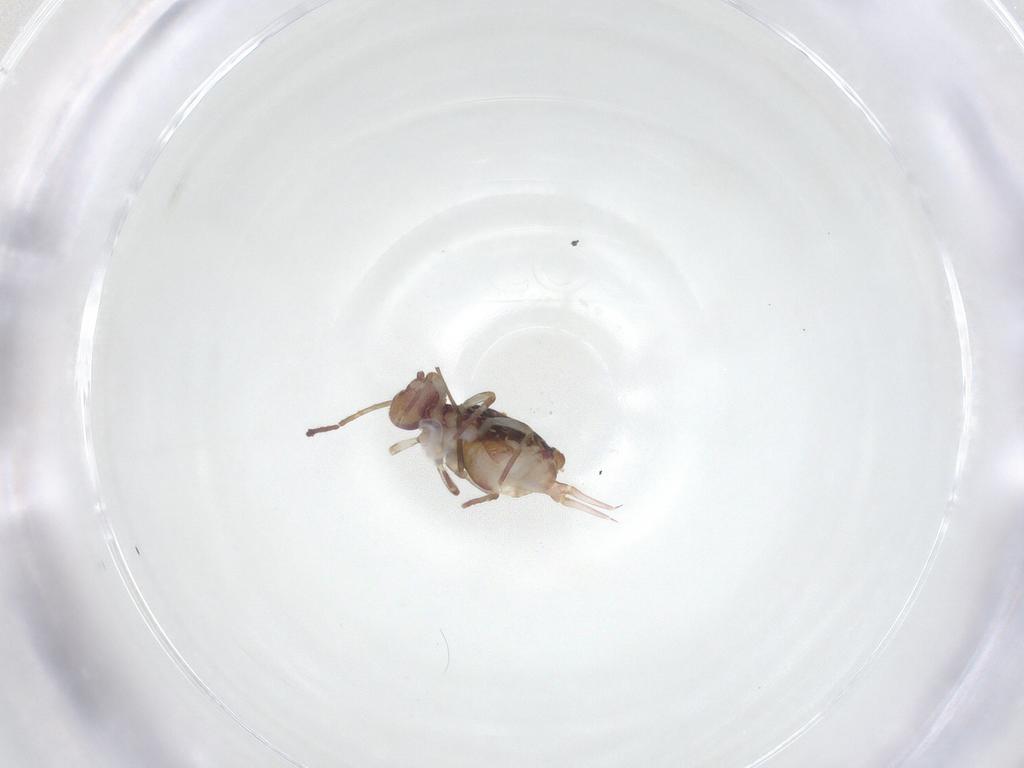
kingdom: Animalia
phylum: Arthropoda
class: Collembola
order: Symphypleona
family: Dicyrtomidae
